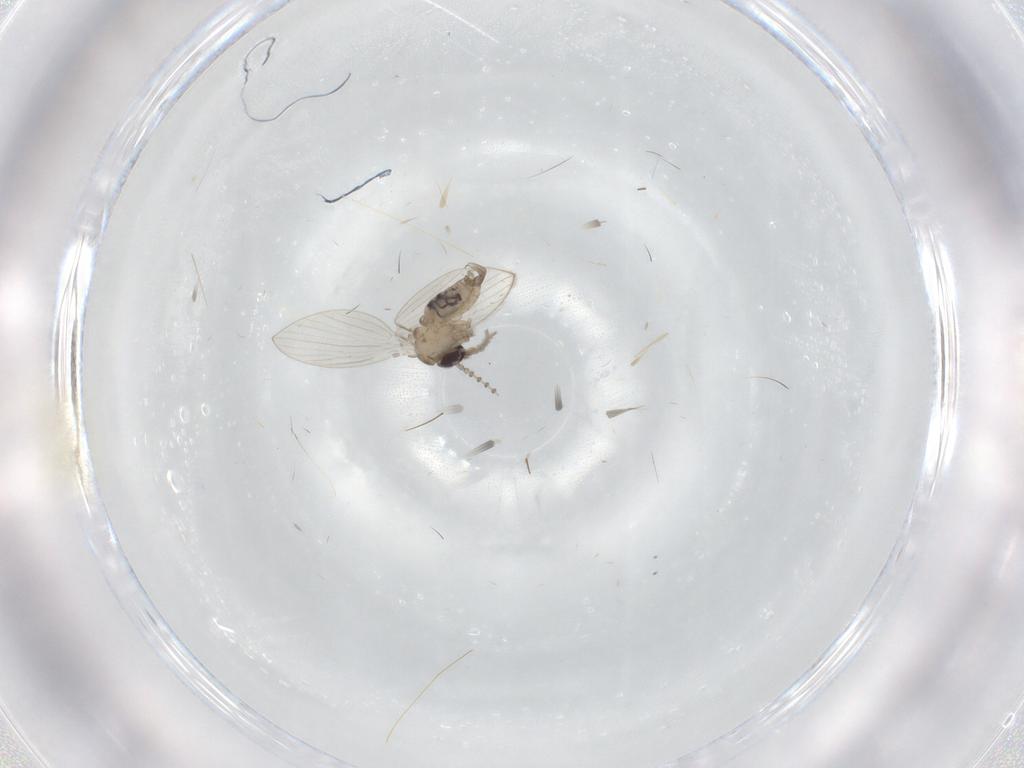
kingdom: Animalia
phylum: Arthropoda
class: Insecta
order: Diptera
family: Psychodidae
